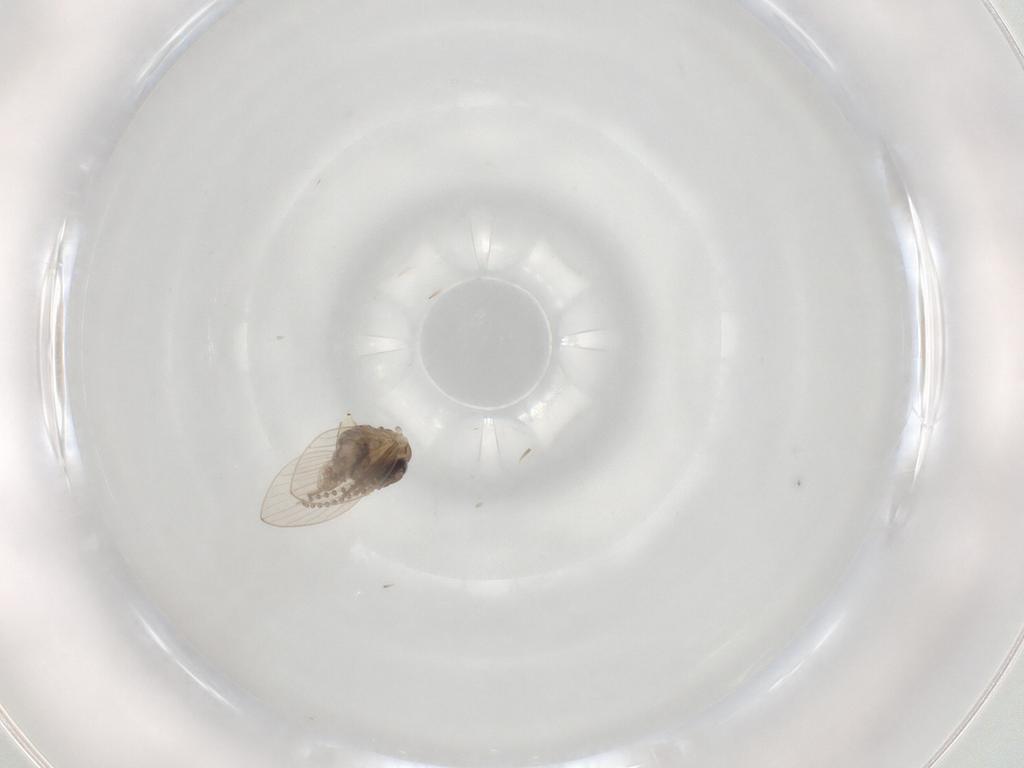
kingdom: Animalia
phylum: Arthropoda
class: Insecta
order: Diptera
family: Phoridae
